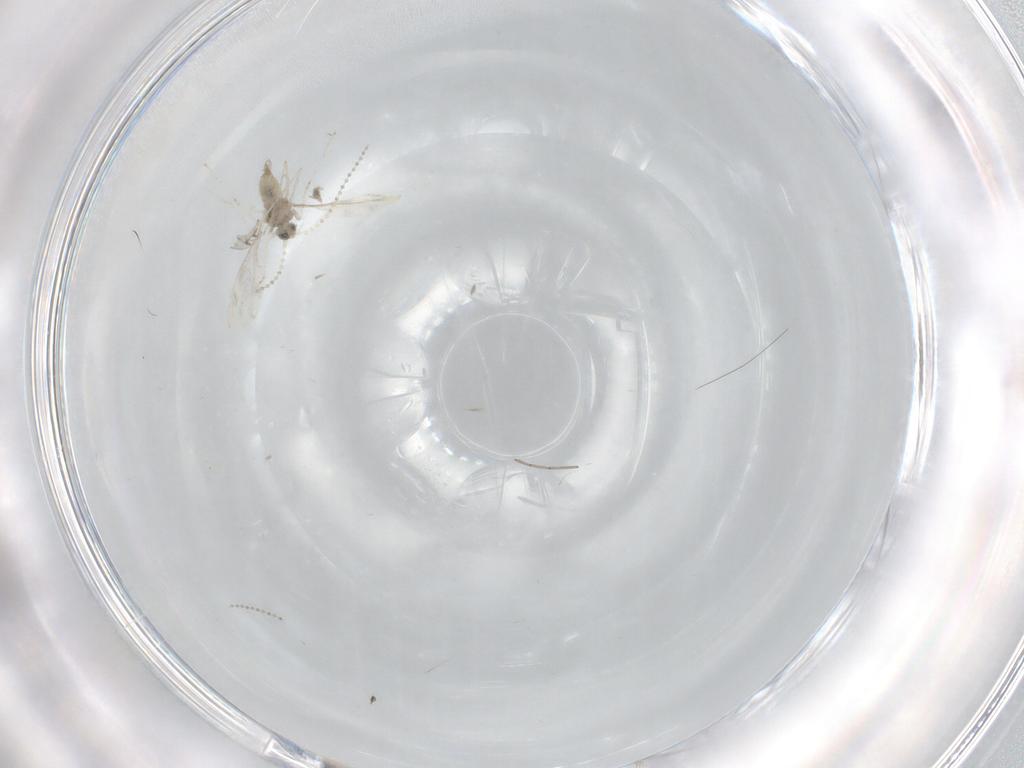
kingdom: Animalia
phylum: Arthropoda
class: Insecta
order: Diptera
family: Cecidomyiidae
